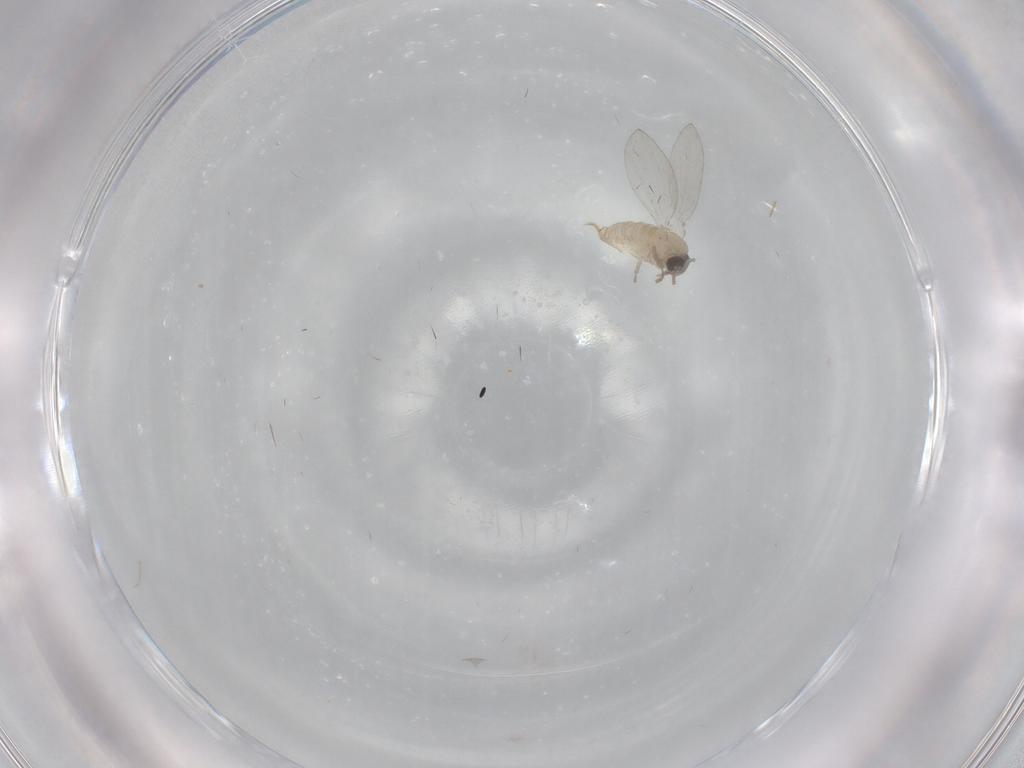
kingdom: Animalia
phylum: Arthropoda
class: Insecta
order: Diptera
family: Psychodidae
